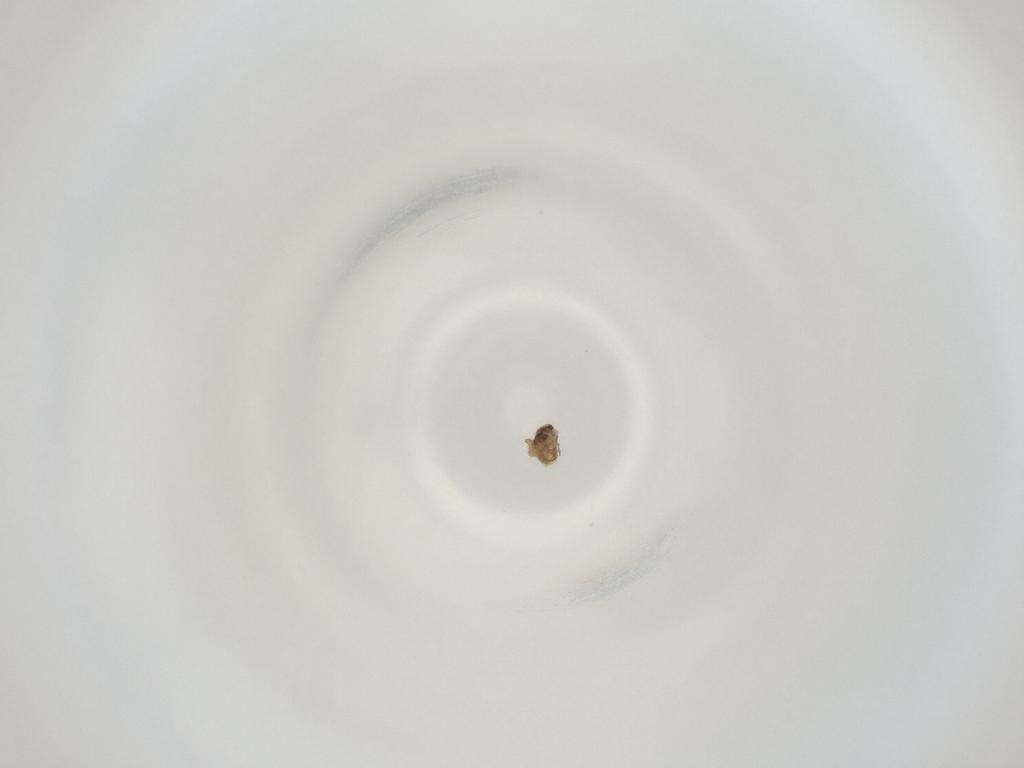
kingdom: Animalia
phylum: Arthropoda
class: Insecta
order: Diptera
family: Cecidomyiidae
